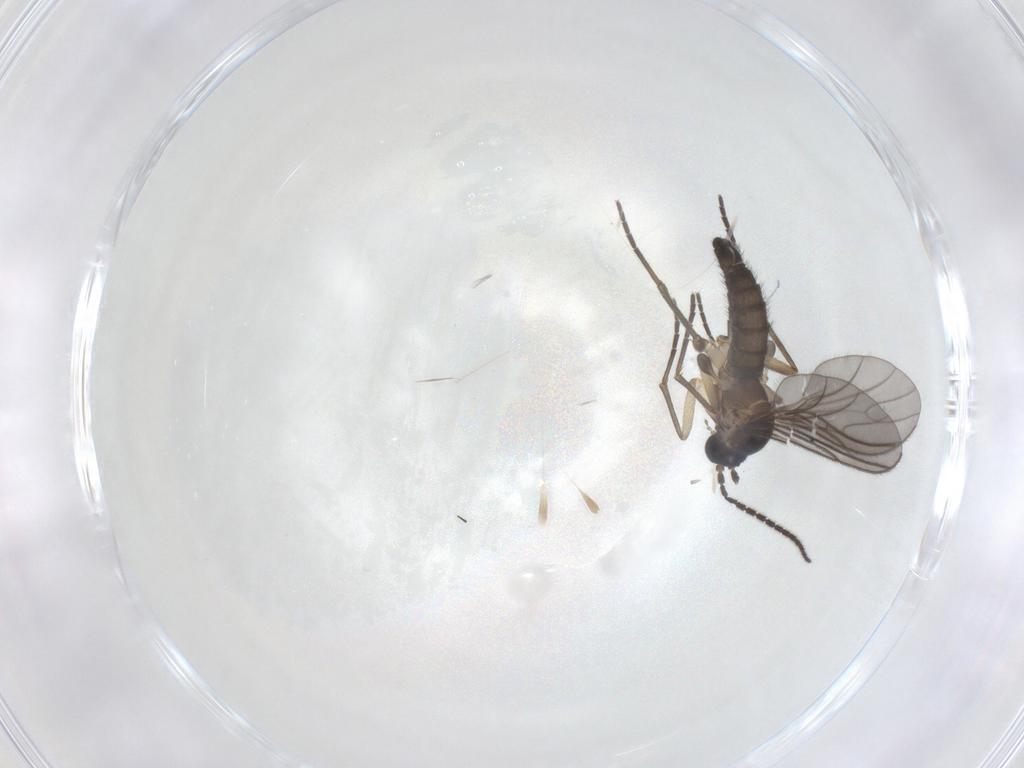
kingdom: Animalia
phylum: Arthropoda
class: Insecta
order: Diptera
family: Sciaridae
